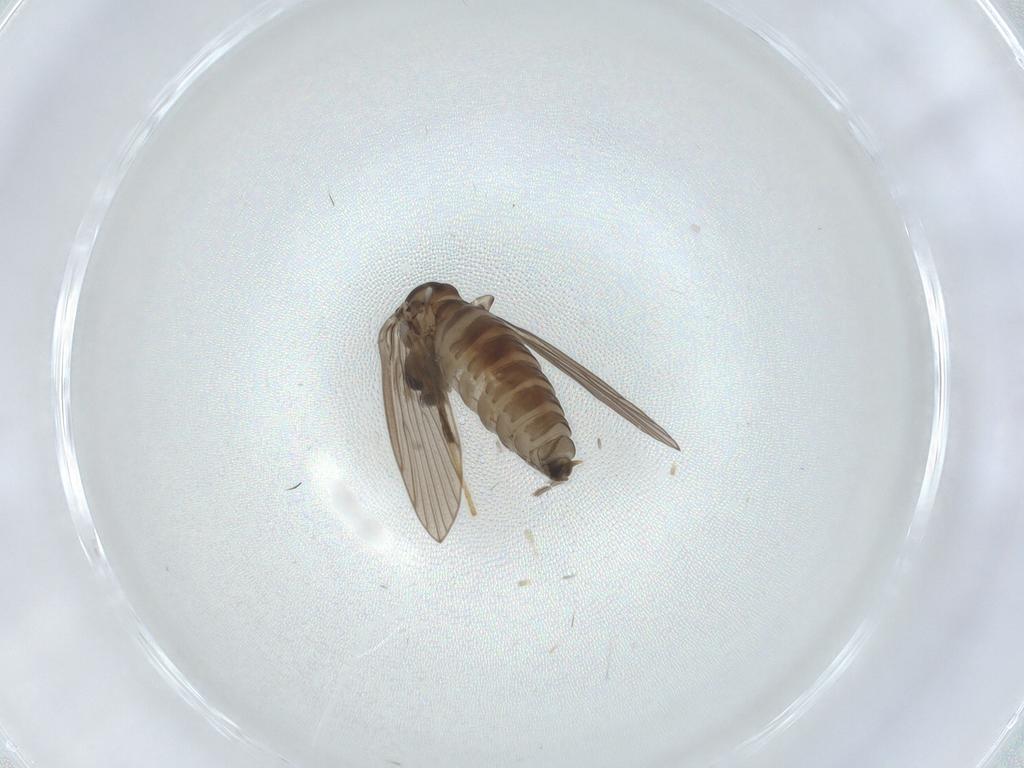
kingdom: Animalia
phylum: Arthropoda
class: Insecta
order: Diptera
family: Psychodidae
